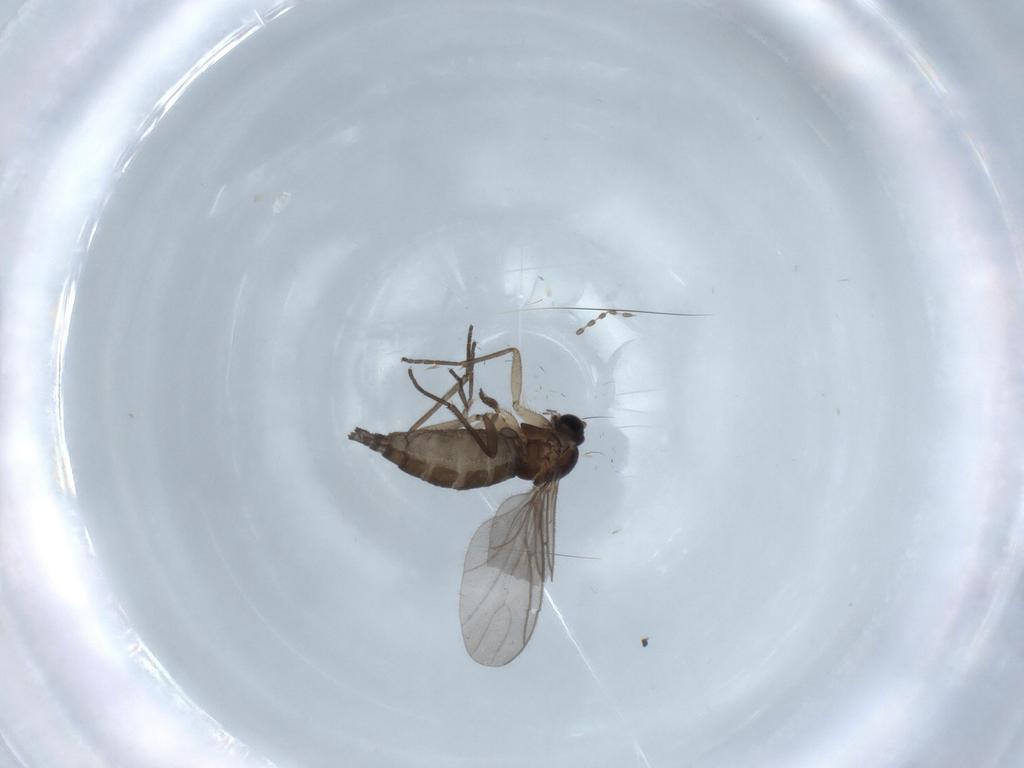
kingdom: Animalia
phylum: Arthropoda
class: Insecta
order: Diptera
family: Sciaridae
